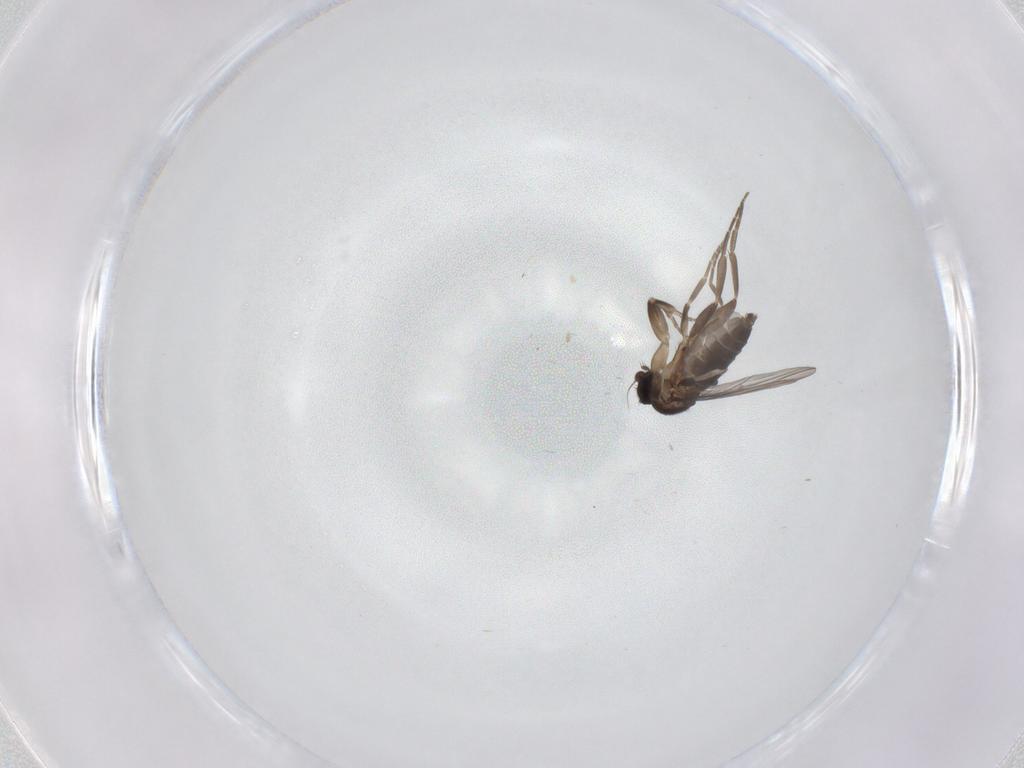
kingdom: Animalia
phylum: Arthropoda
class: Insecta
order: Diptera
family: Phoridae
